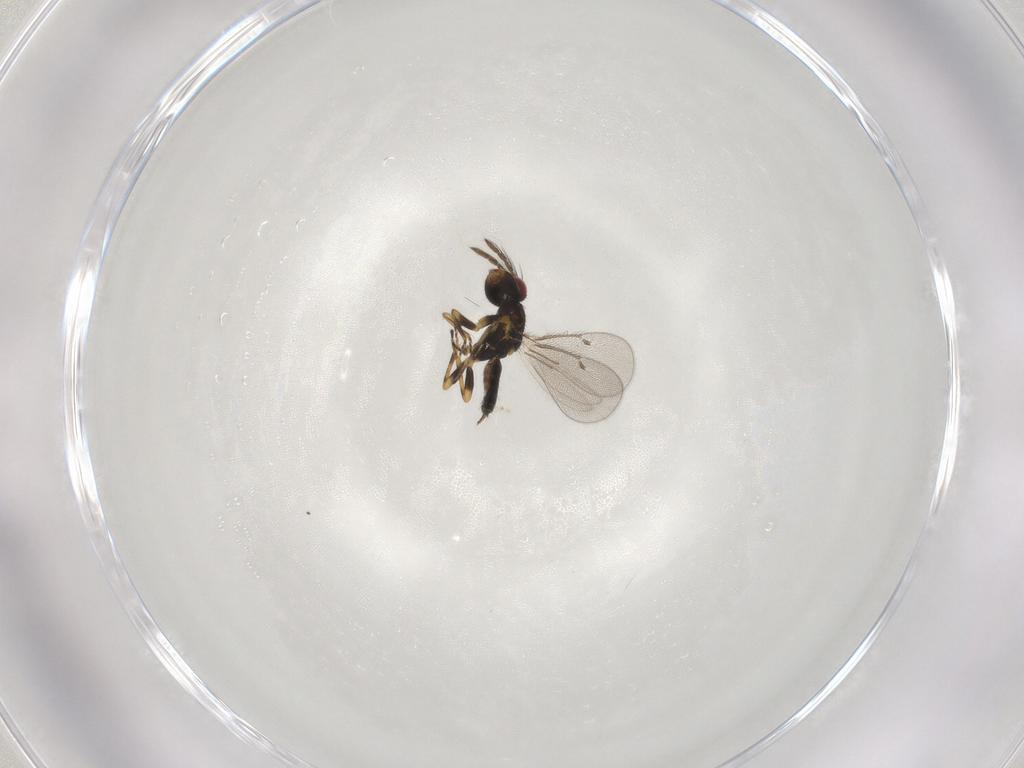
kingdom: Animalia
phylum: Arthropoda
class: Insecta
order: Hymenoptera
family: Eulophidae
